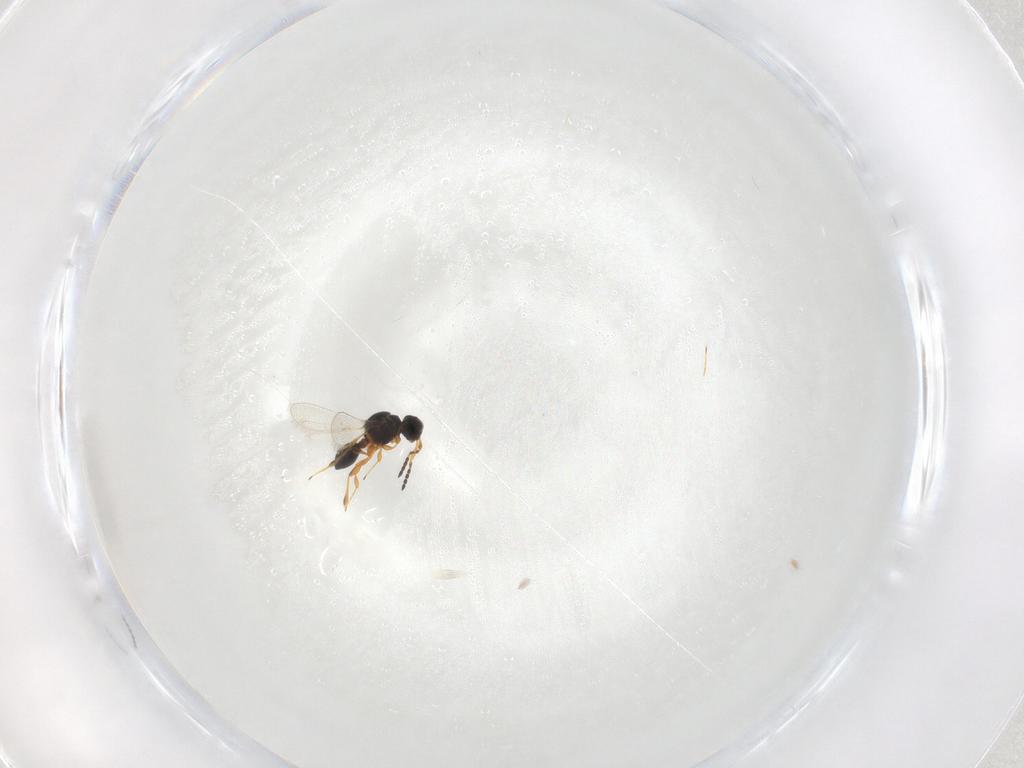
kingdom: Animalia
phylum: Arthropoda
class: Insecta
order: Hymenoptera
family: Platygastridae
